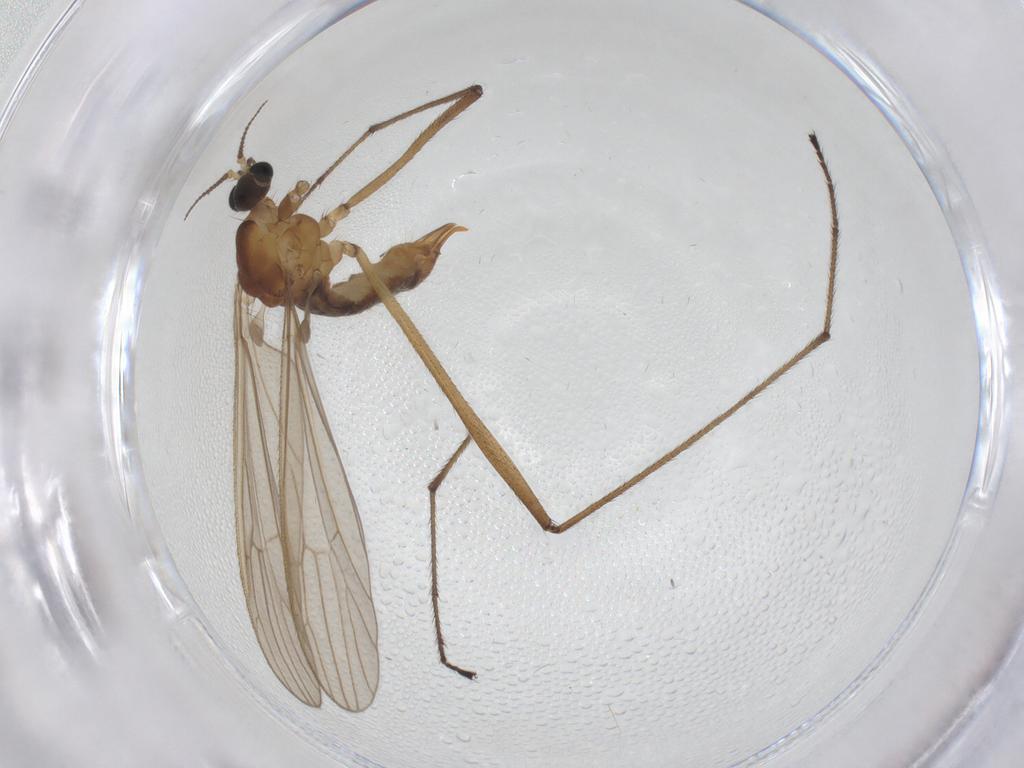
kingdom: Animalia
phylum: Arthropoda
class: Insecta
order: Diptera
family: Limoniidae
